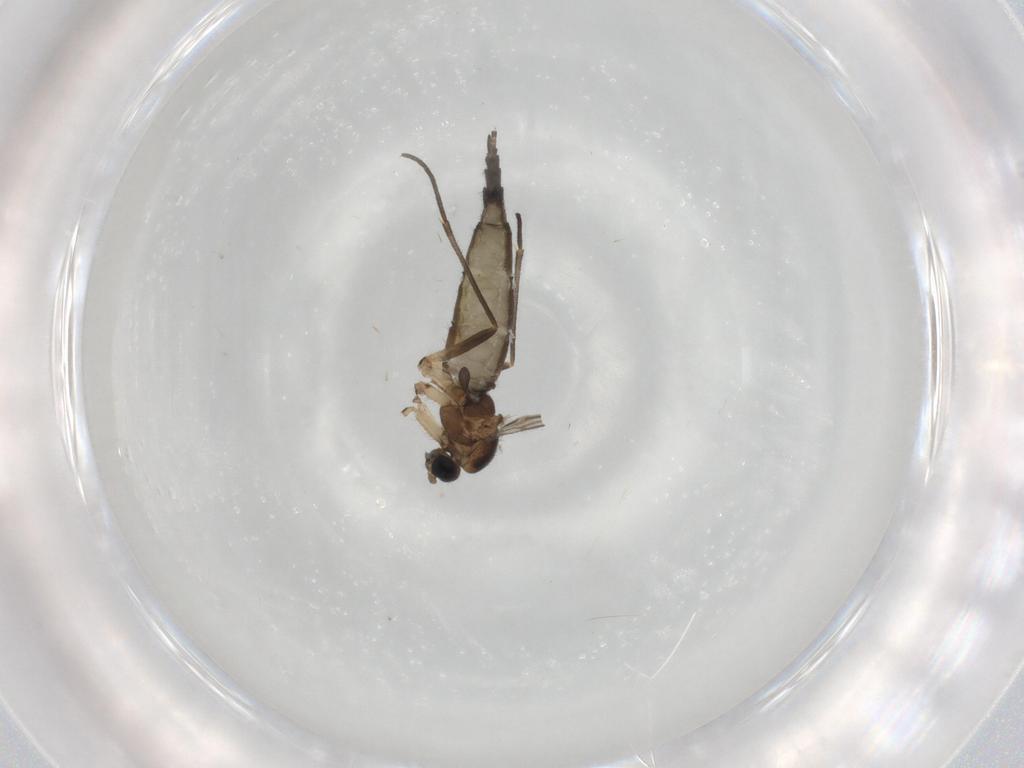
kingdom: Animalia
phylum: Arthropoda
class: Insecta
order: Diptera
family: Sciaridae
